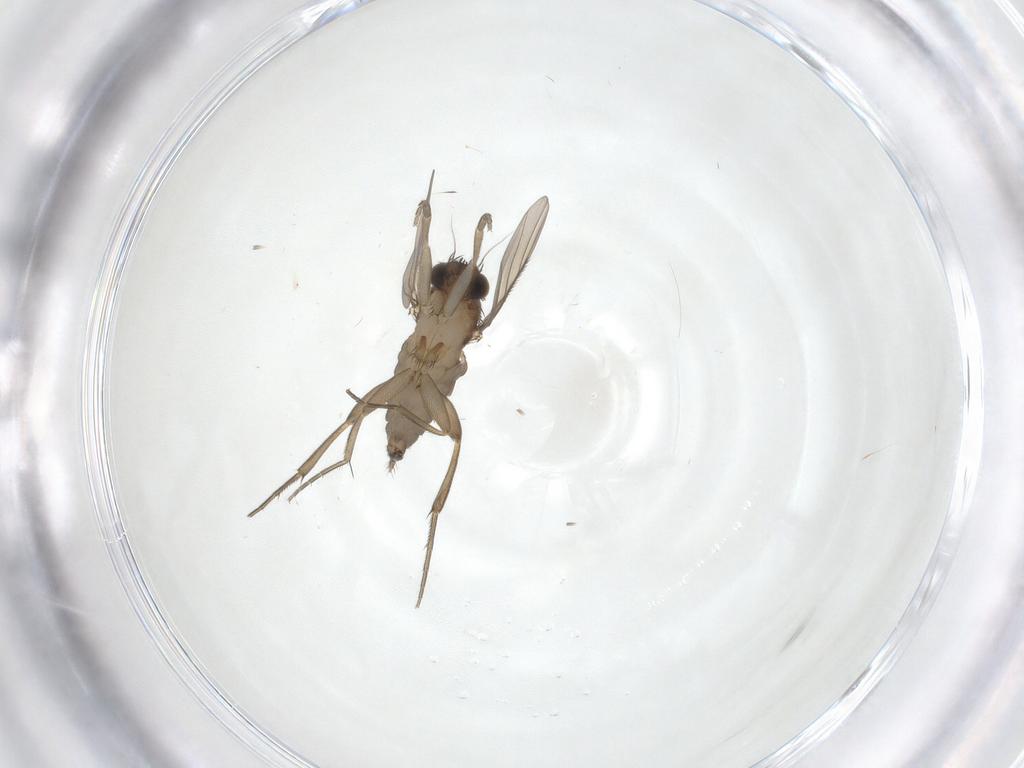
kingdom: Animalia
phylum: Arthropoda
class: Insecta
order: Diptera
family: Phoridae
